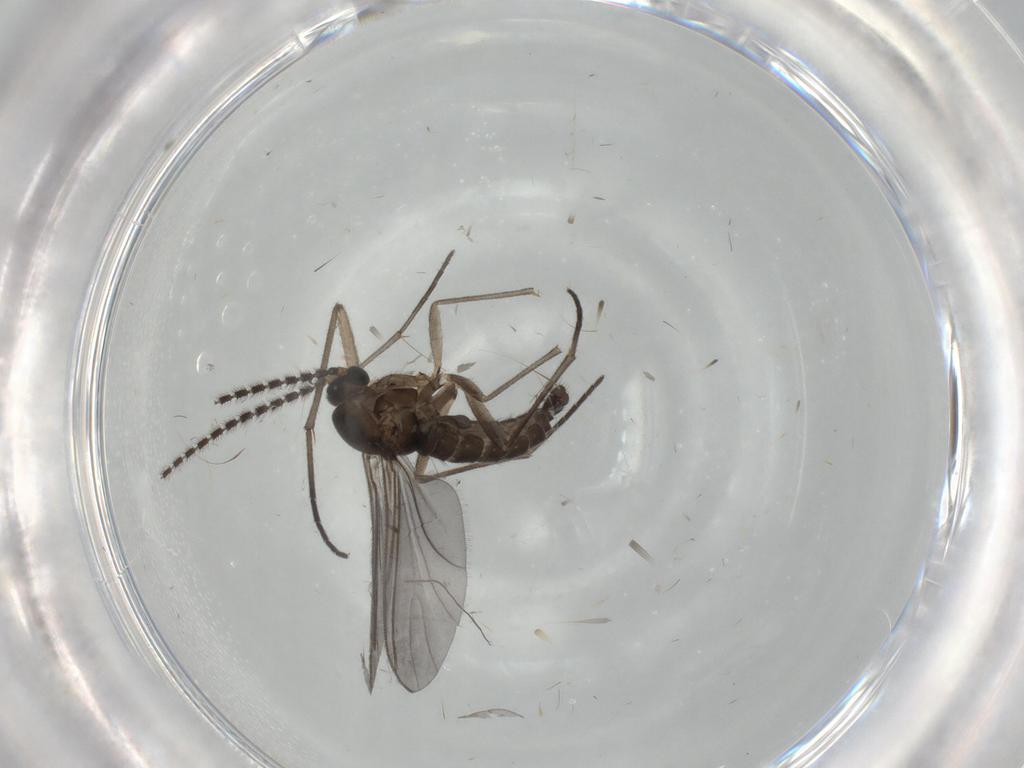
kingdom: Animalia
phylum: Arthropoda
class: Insecta
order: Diptera
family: Sciaridae
